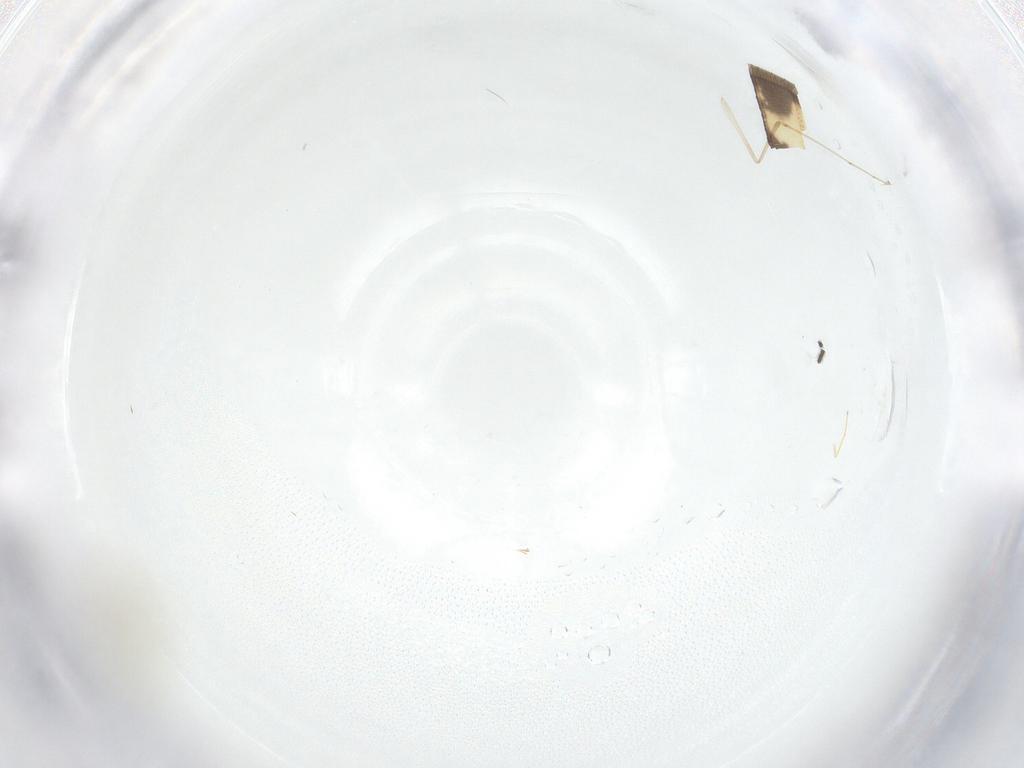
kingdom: Animalia
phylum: Arthropoda
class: Insecta
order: Diptera
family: Sciaridae
